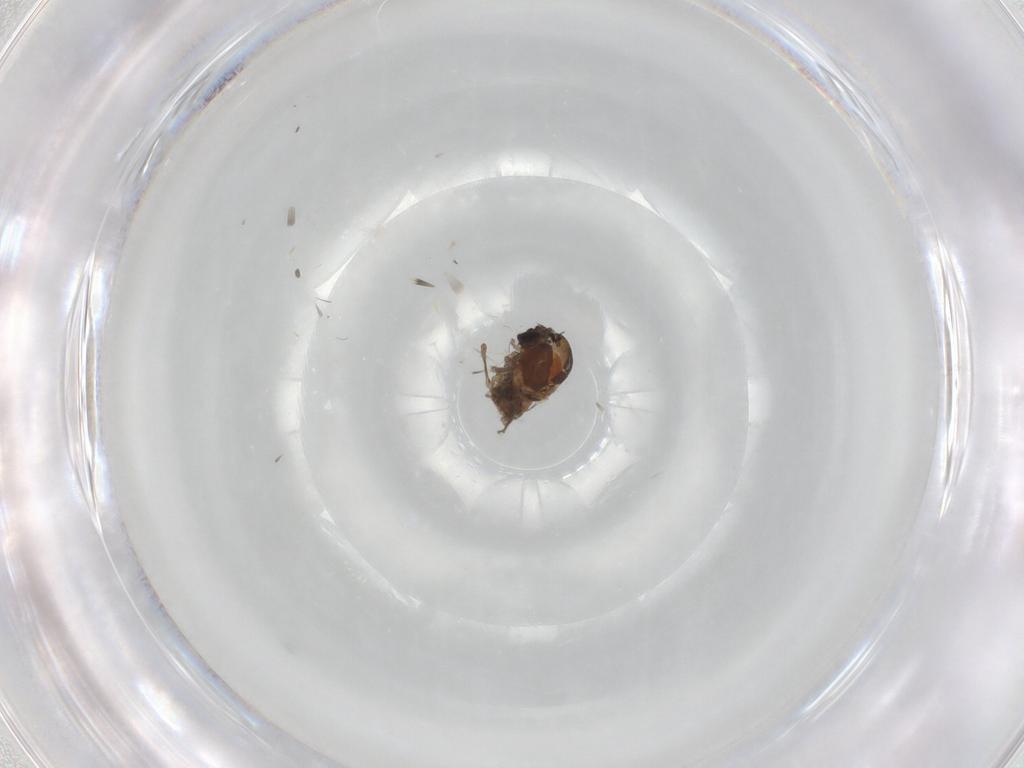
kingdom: Animalia
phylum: Arthropoda
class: Insecta
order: Diptera
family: Ceratopogonidae
